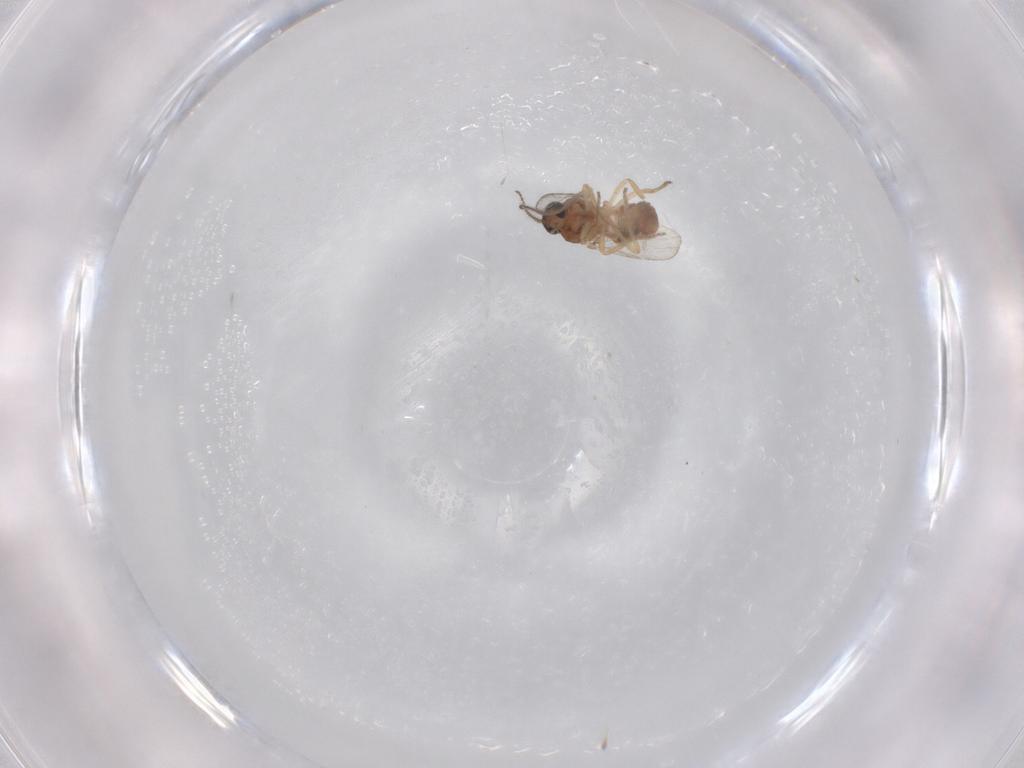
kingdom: Animalia
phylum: Arthropoda
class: Insecta
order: Diptera
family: Ceratopogonidae
